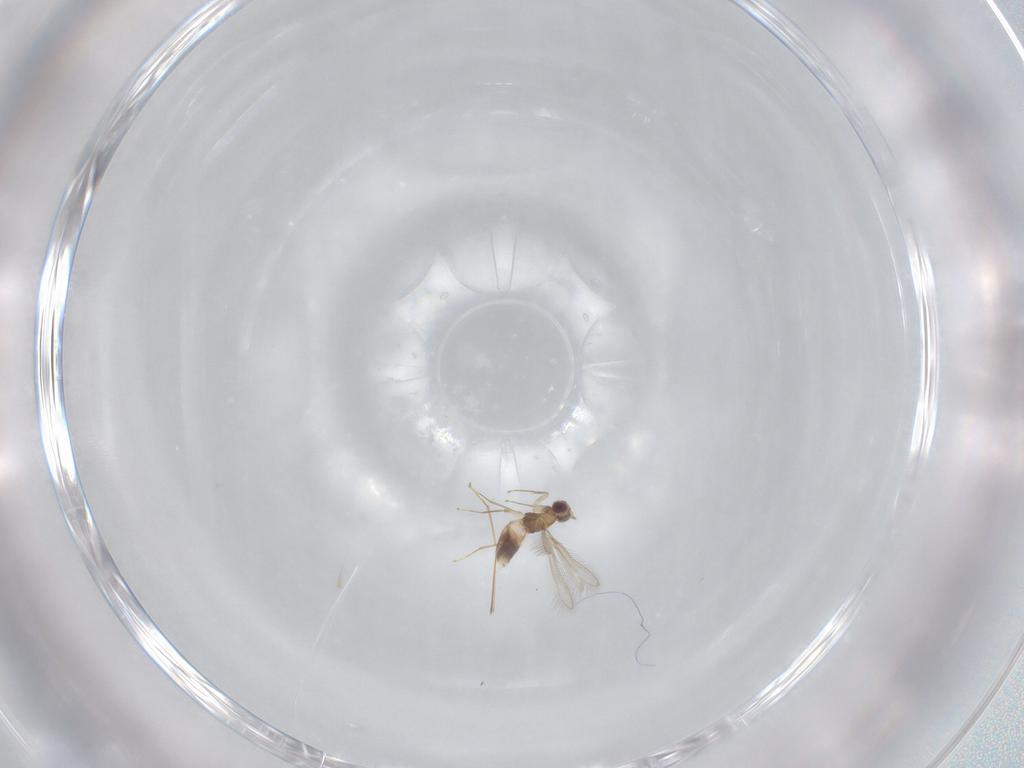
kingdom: Animalia
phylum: Arthropoda
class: Insecta
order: Hymenoptera
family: Mymaridae
